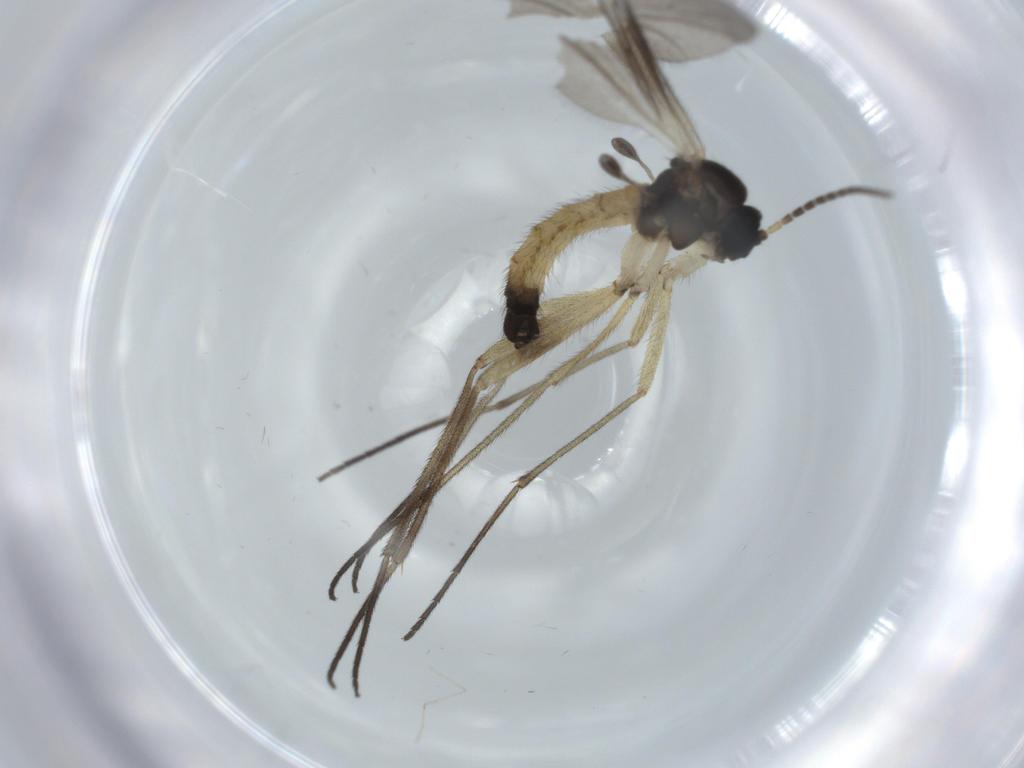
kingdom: Animalia
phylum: Arthropoda
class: Insecta
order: Diptera
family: Sciaridae
